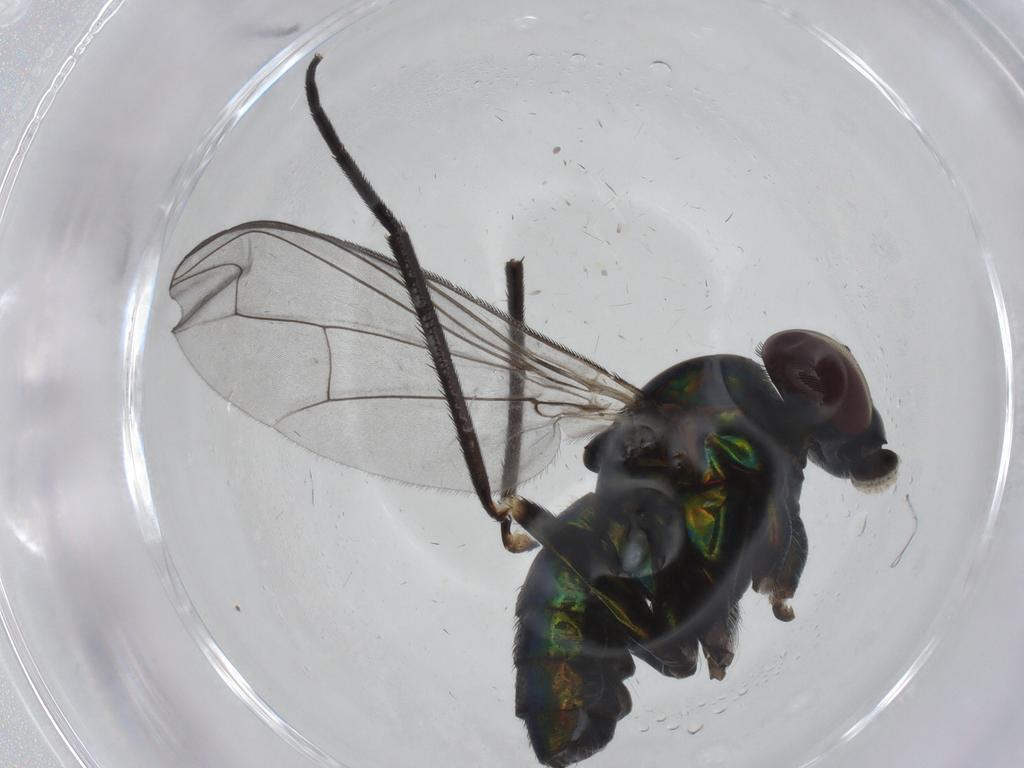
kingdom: Animalia
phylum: Arthropoda
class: Insecta
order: Diptera
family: Dolichopodidae
